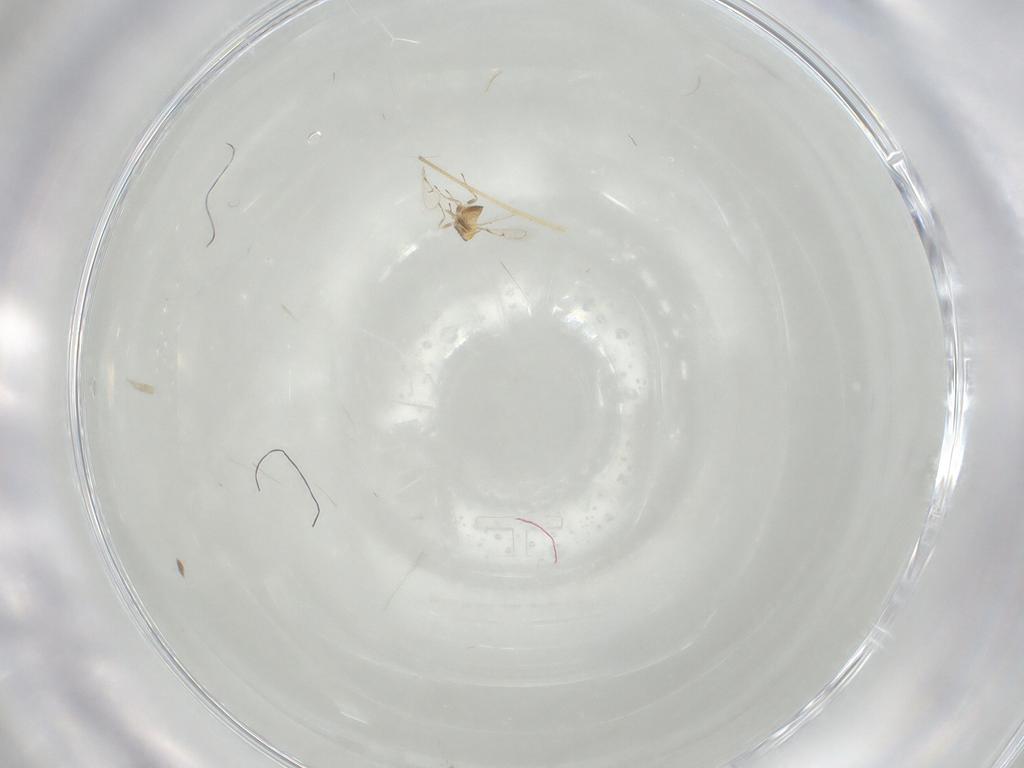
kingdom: Animalia
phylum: Arthropoda
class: Insecta
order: Hymenoptera
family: Trichogrammatidae
